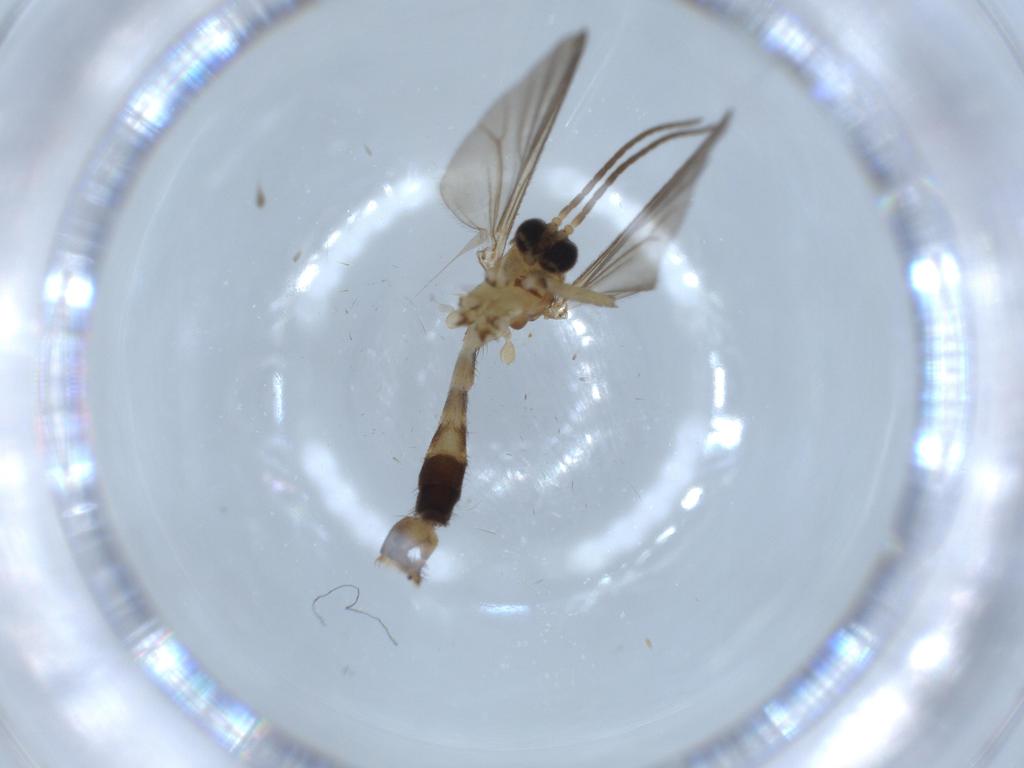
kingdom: Animalia
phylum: Arthropoda
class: Insecta
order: Diptera
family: Mycetophilidae
